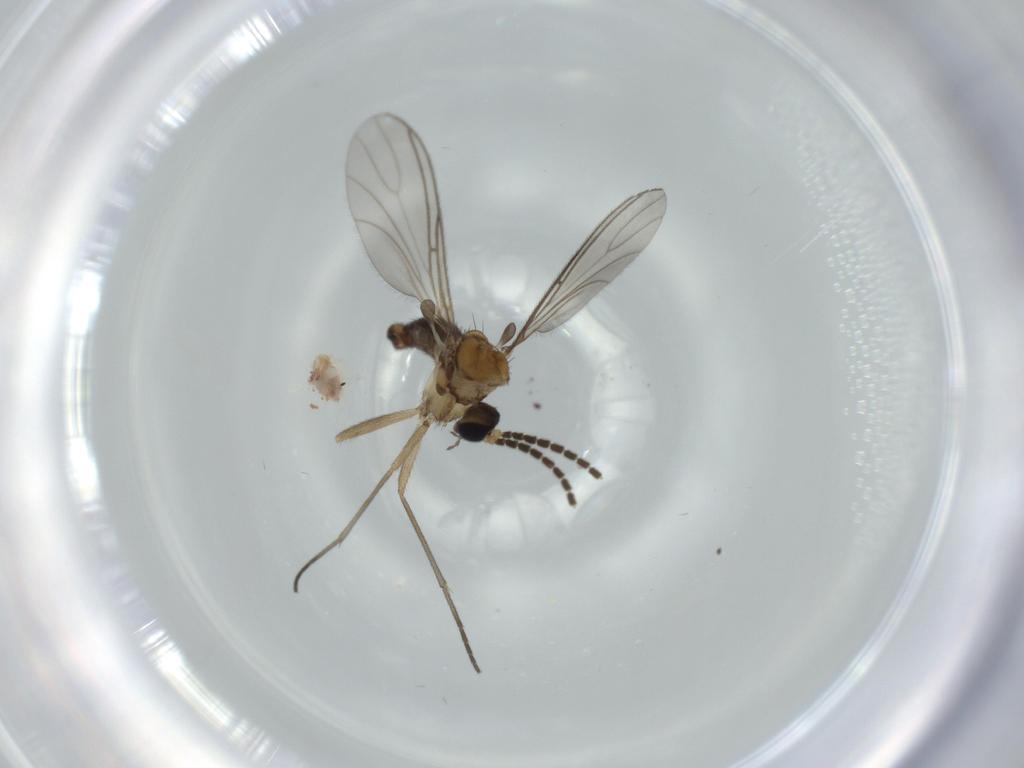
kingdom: Animalia
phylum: Arthropoda
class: Insecta
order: Diptera
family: Sciaridae
